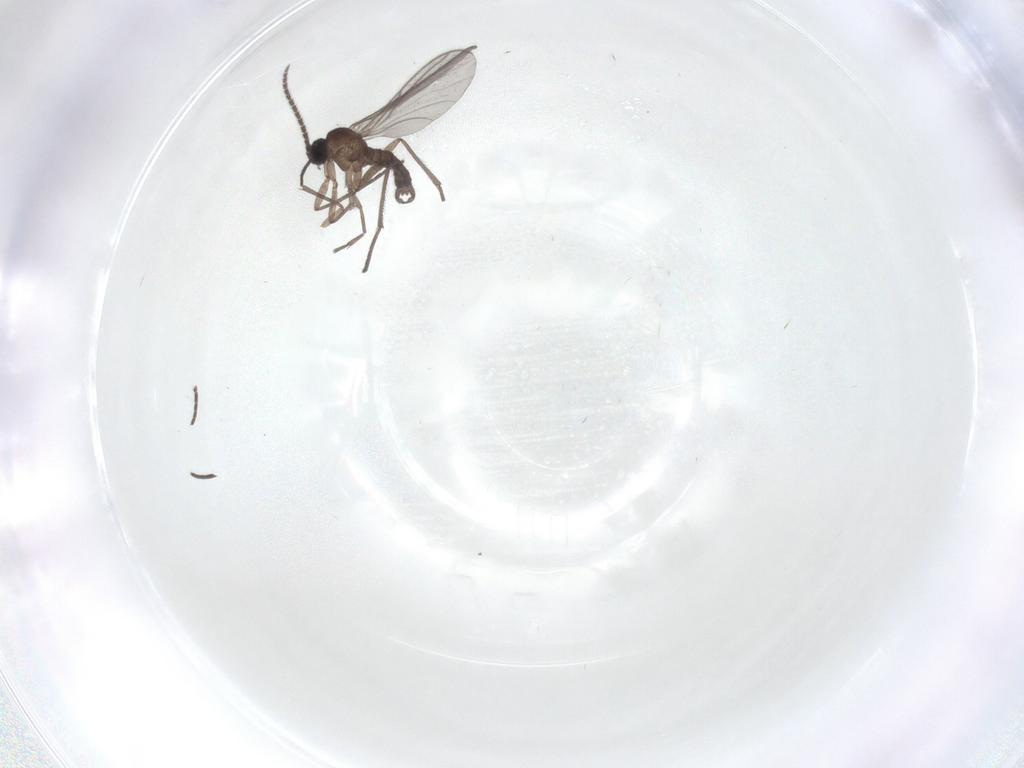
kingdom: Animalia
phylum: Arthropoda
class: Insecta
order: Diptera
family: Sciaridae
